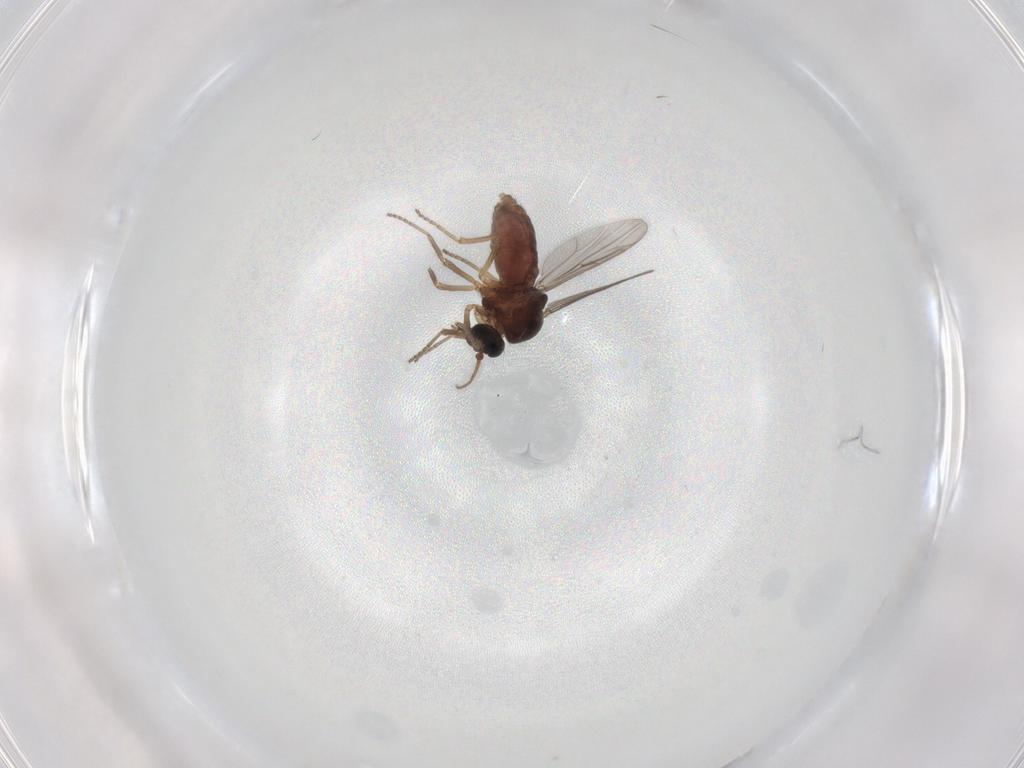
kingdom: Animalia
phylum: Arthropoda
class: Insecta
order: Diptera
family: Ceratopogonidae
